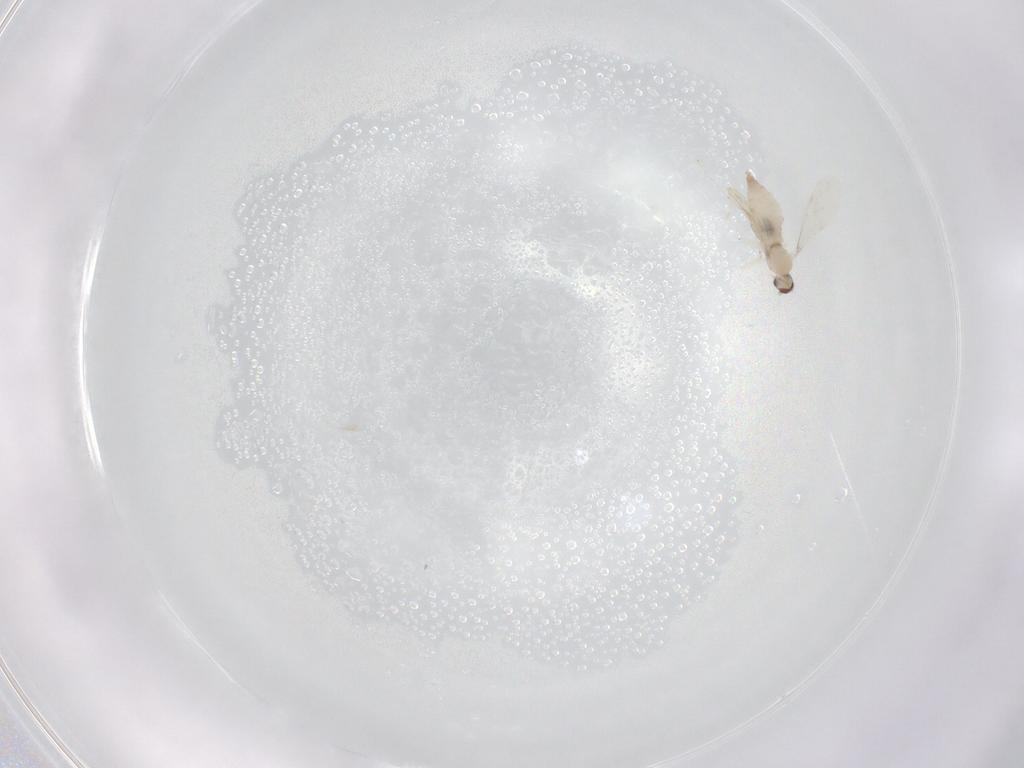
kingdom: Animalia
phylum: Arthropoda
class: Insecta
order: Diptera
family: Cecidomyiidae
